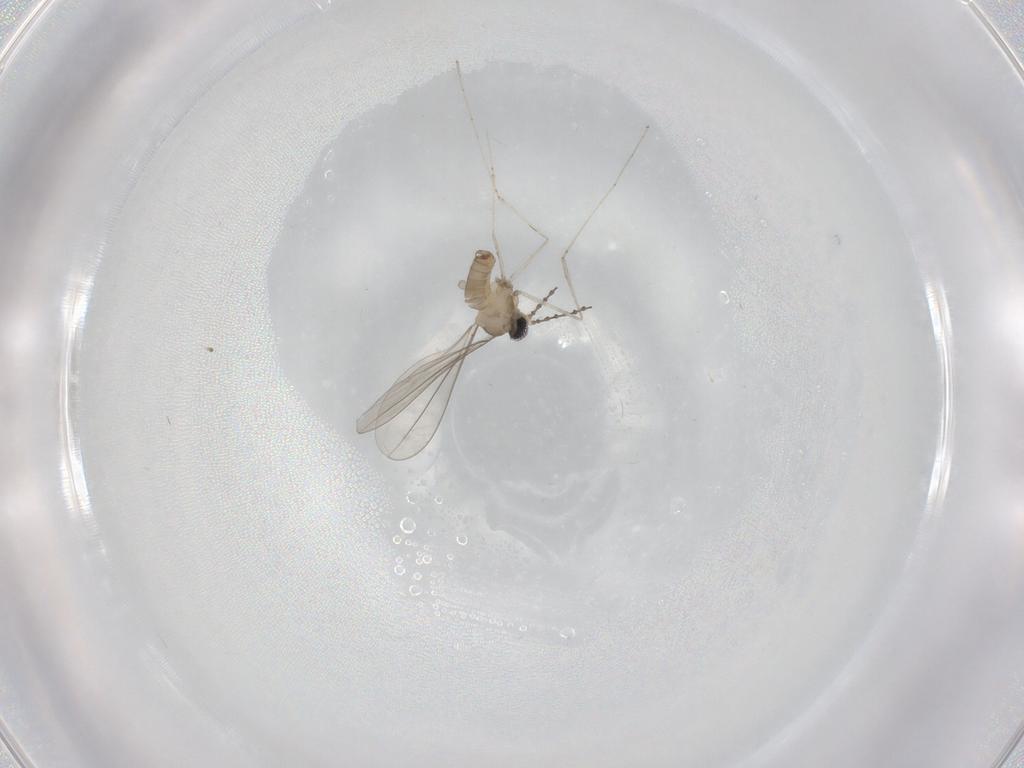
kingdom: Animalia
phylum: Arthropoda
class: Insecta
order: Diptera
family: Cecidomyiidae
